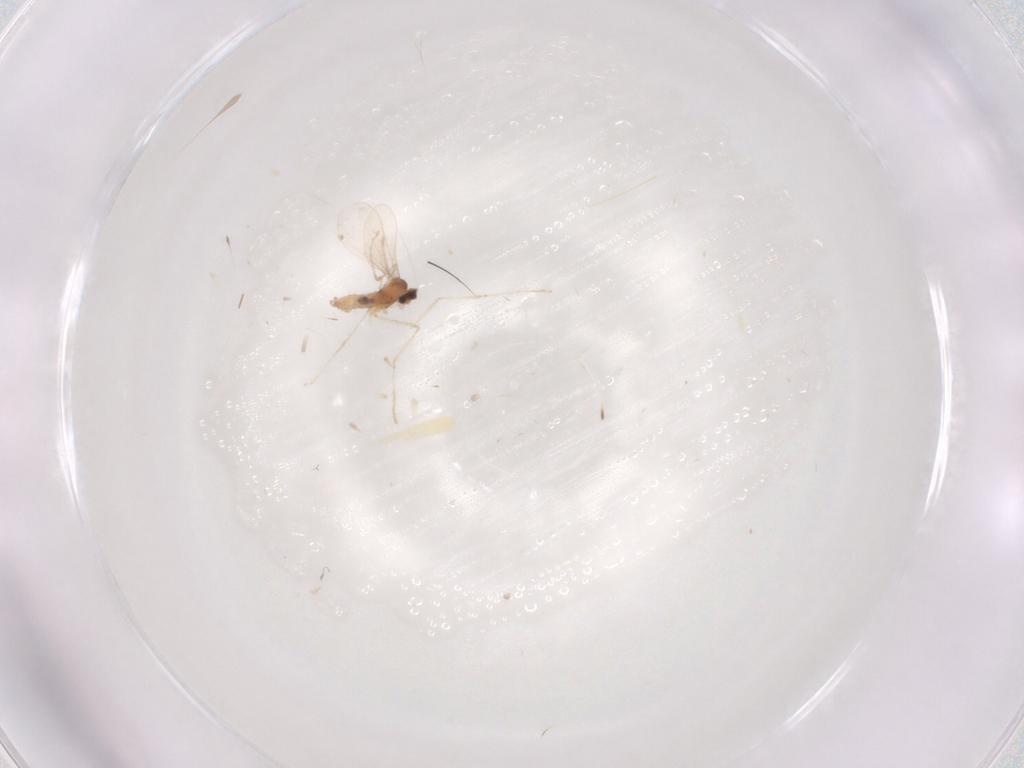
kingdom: Animalia
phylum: Arthropoda
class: Insecta
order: Diptera
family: Cecidomyiidae
